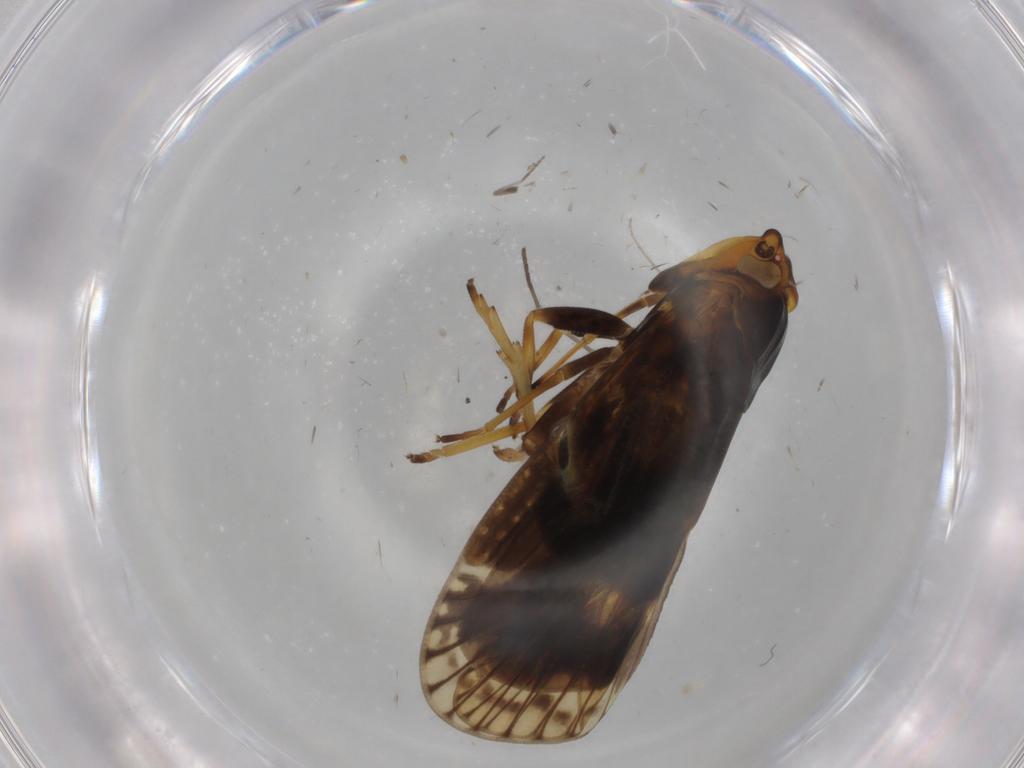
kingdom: Animalia
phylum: Arthropoda
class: Insecta
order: Hemiptera
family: Cixiidae
